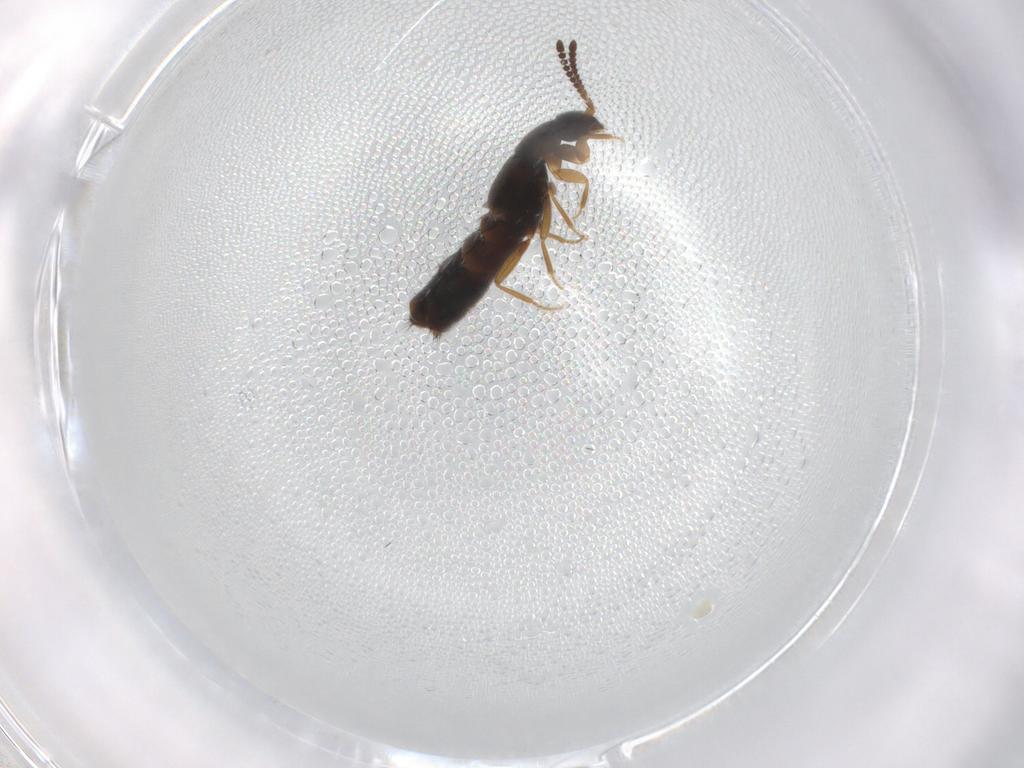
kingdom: Animalia
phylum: Arthropoda
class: Insecta
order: Coleoptera
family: Staphylinidae
